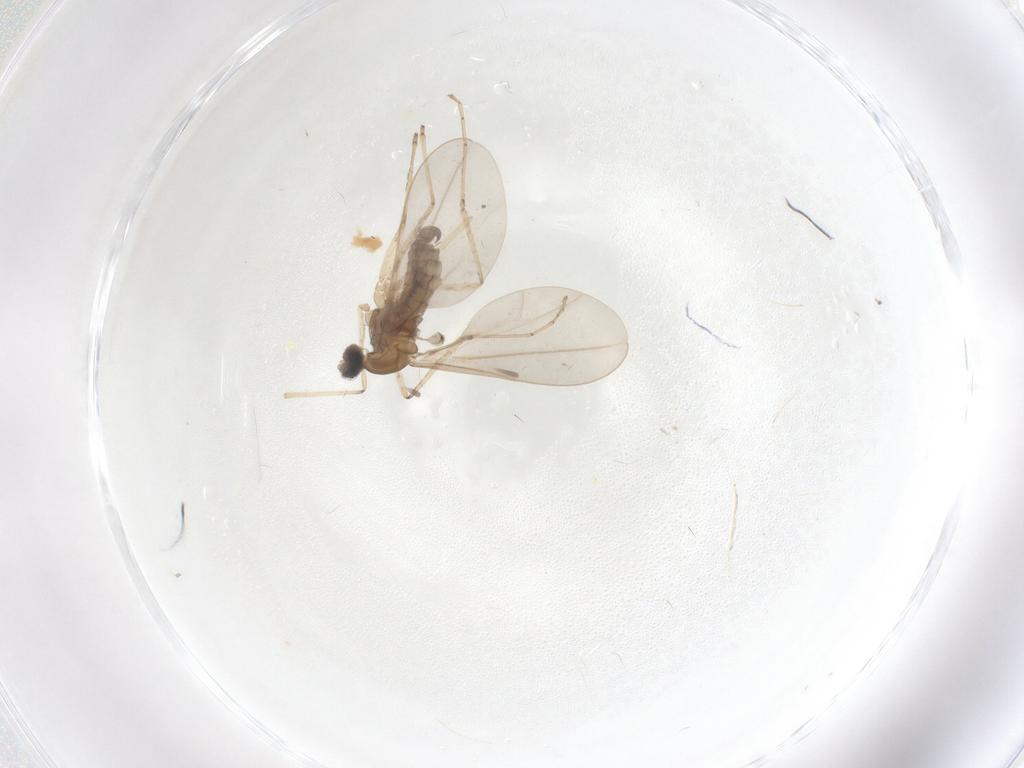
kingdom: Animalia
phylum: Arthropoda
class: Insecta
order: Diptera
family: Cecidomyiidae
